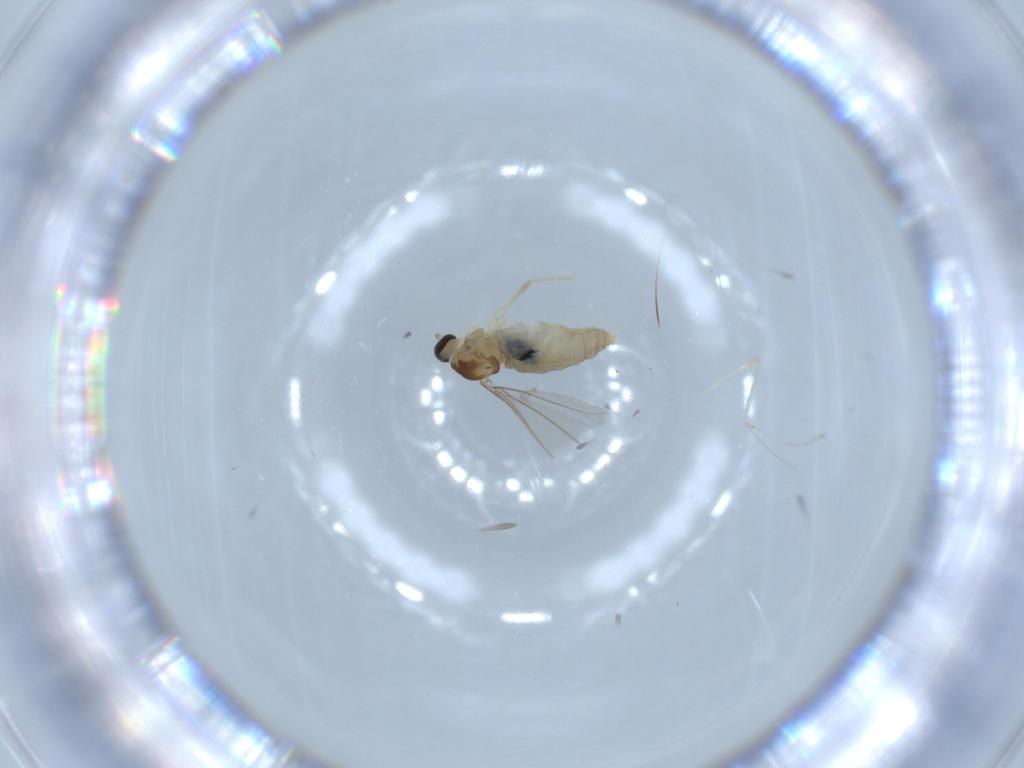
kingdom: Animalia
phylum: Arthropoda
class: Insecta
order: Diptera
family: Cecidomyiidae
